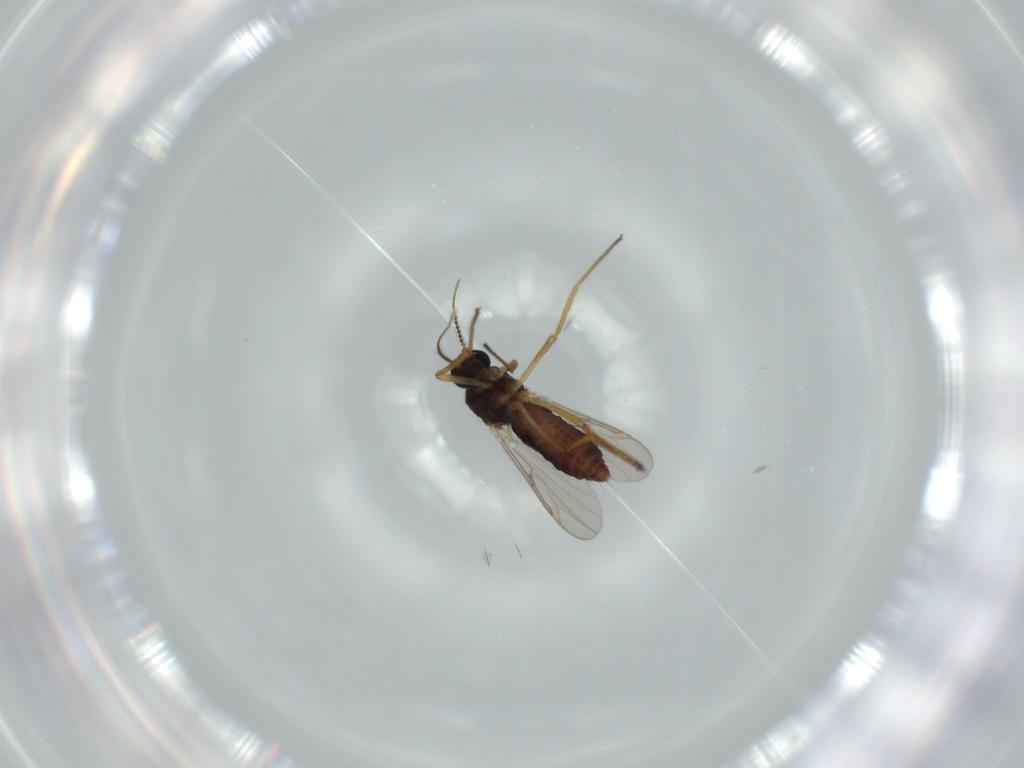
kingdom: Animalia
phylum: Arthropoda
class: Insecta
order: Diptera
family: Ceratopogonidae
